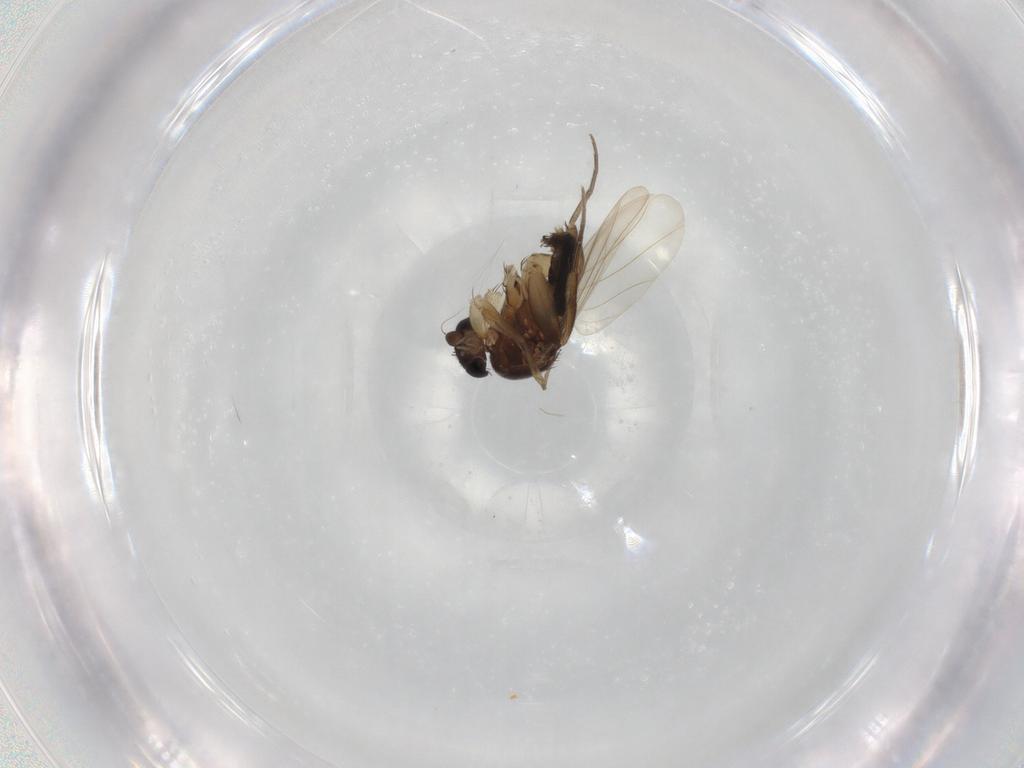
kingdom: Animalia
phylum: Arthropoda
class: Insecta
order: Diptera
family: Phoridae
